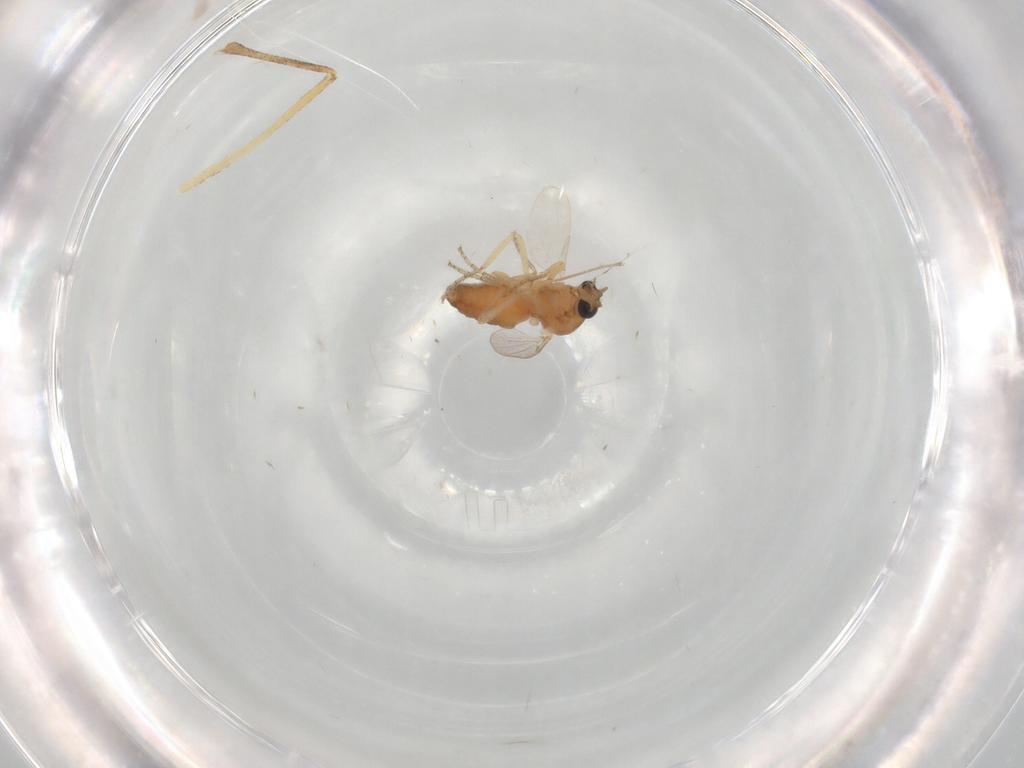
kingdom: Animalia
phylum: Arthropoda
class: Insecta
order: Diptera
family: Ceratopogonidae
